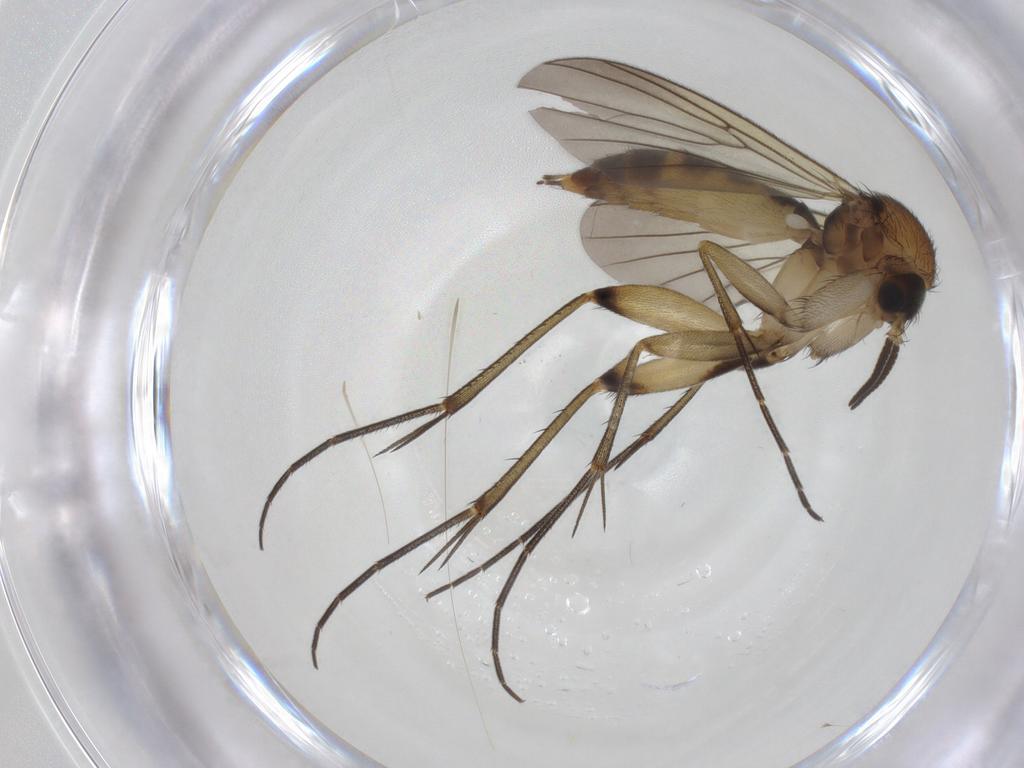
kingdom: Animalia
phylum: Arthropoda
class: Insecta
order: Diptera
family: Mycetophilidae
